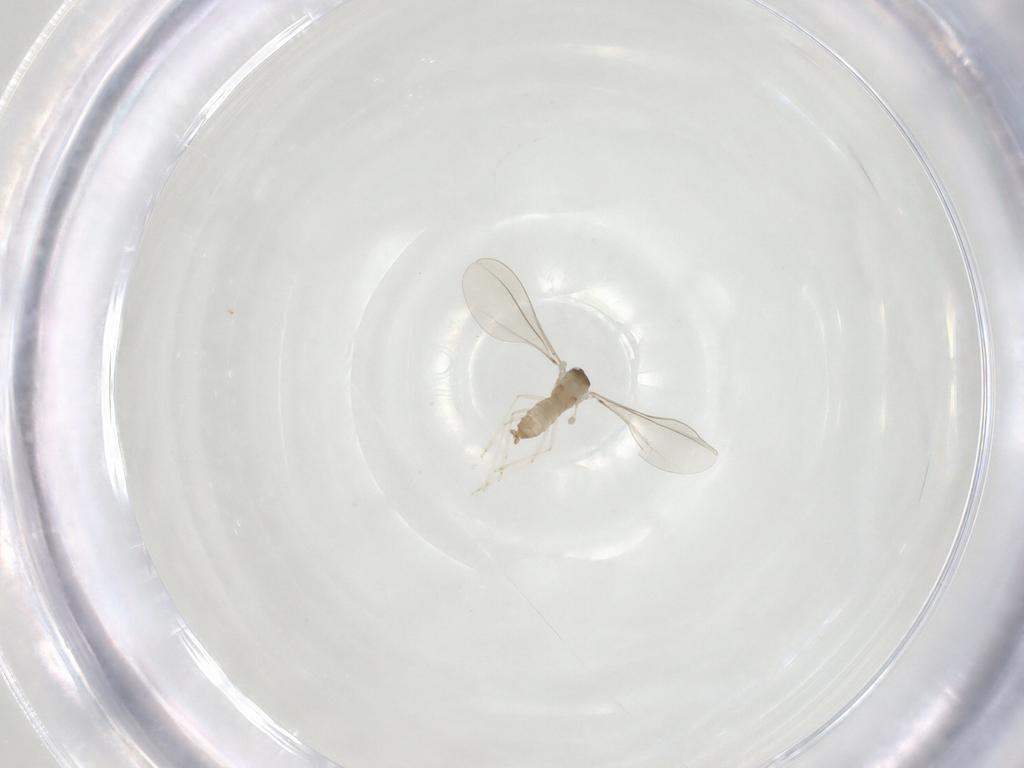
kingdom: Animalia
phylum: Arthropoda
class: Insecta
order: Diptera
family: Cecidomyiidae
